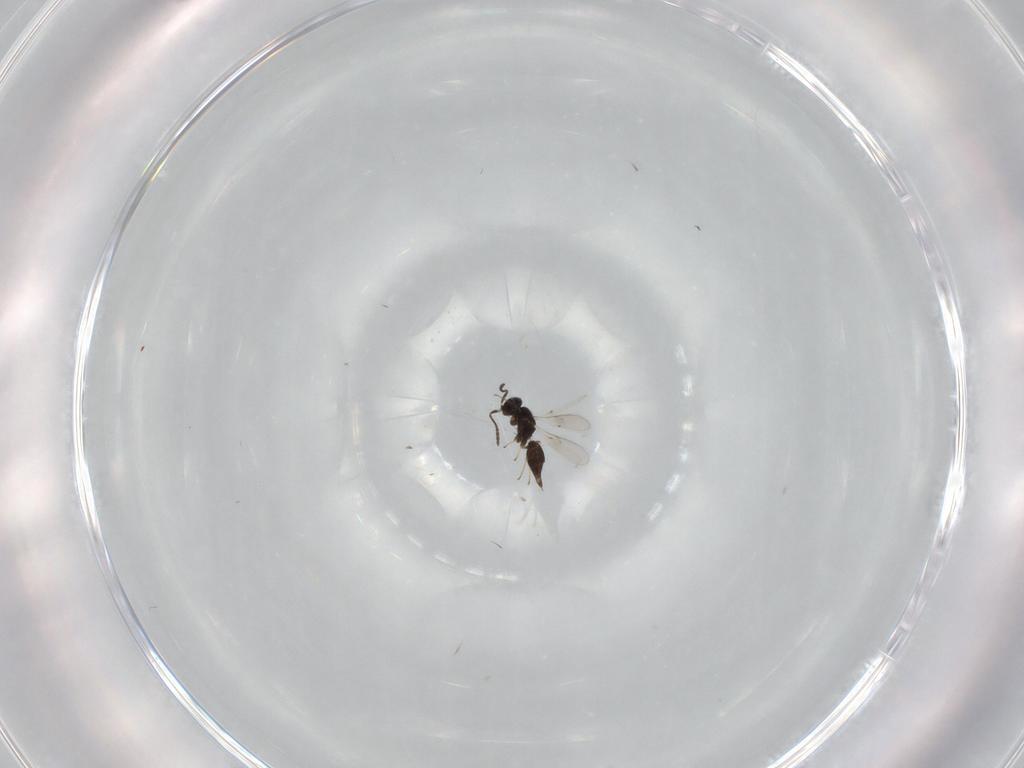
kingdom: Animalia
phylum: Arthropoda
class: Insecta
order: Hymenoptera
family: Scelionidae
